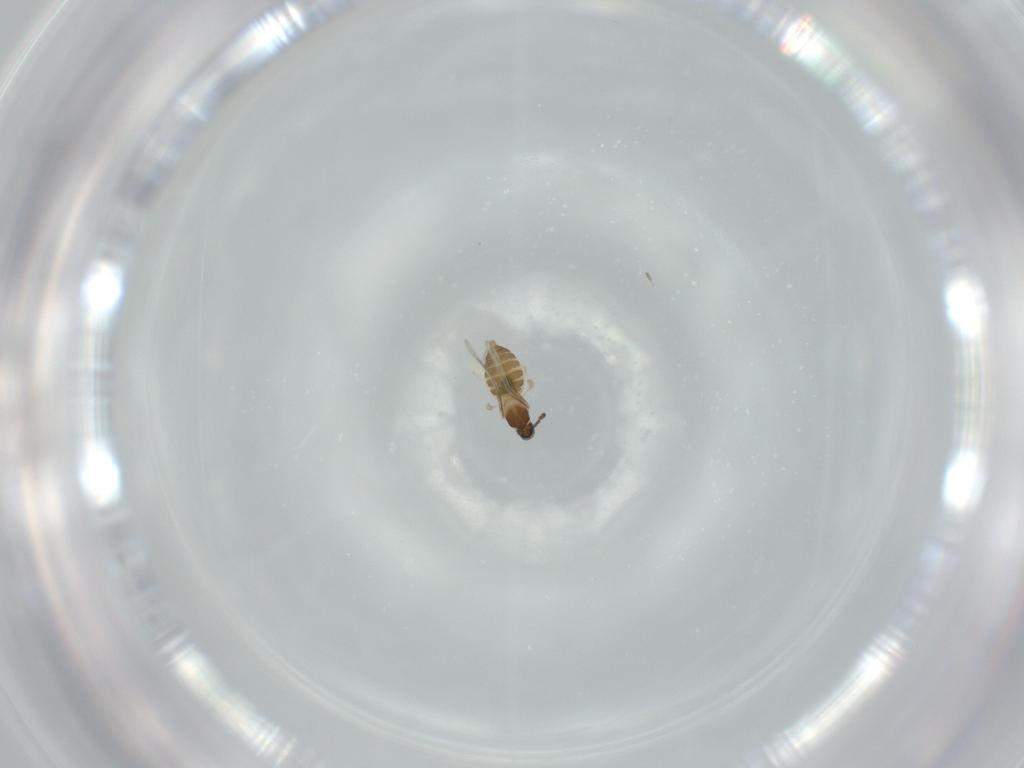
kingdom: Animalia
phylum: Arthropoda
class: Insecta
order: Diptera
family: Cecidomyiidae
